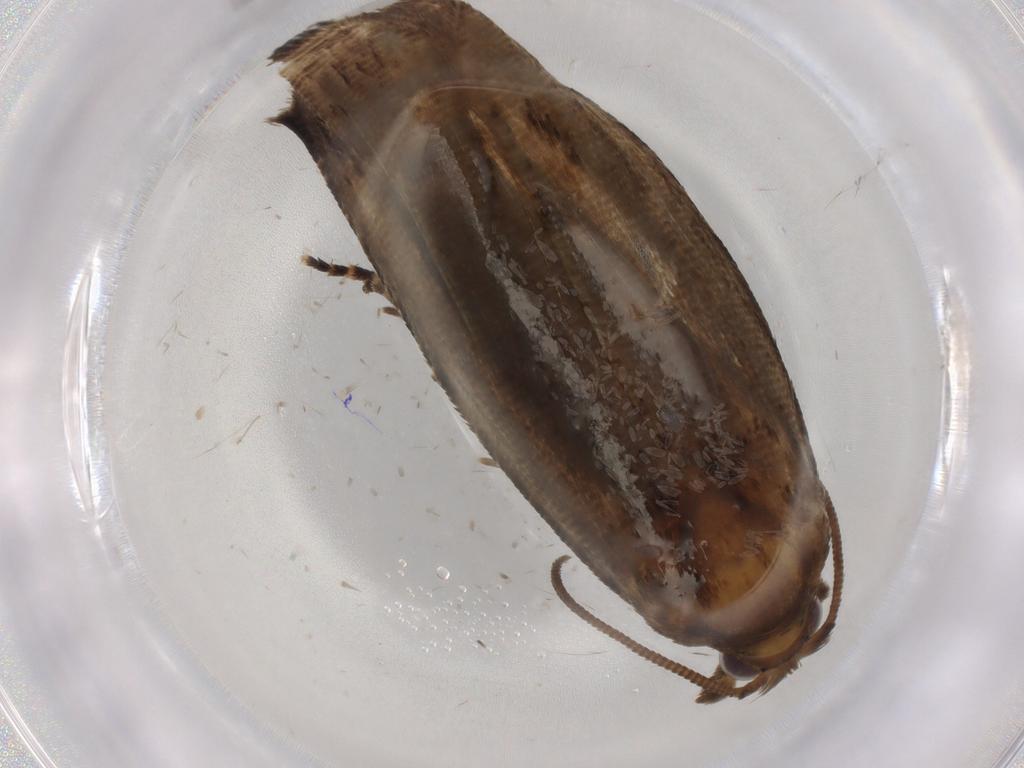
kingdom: Animalia
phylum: Arthropoda
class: Insecta
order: Lepidoptera
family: Tortricidae
